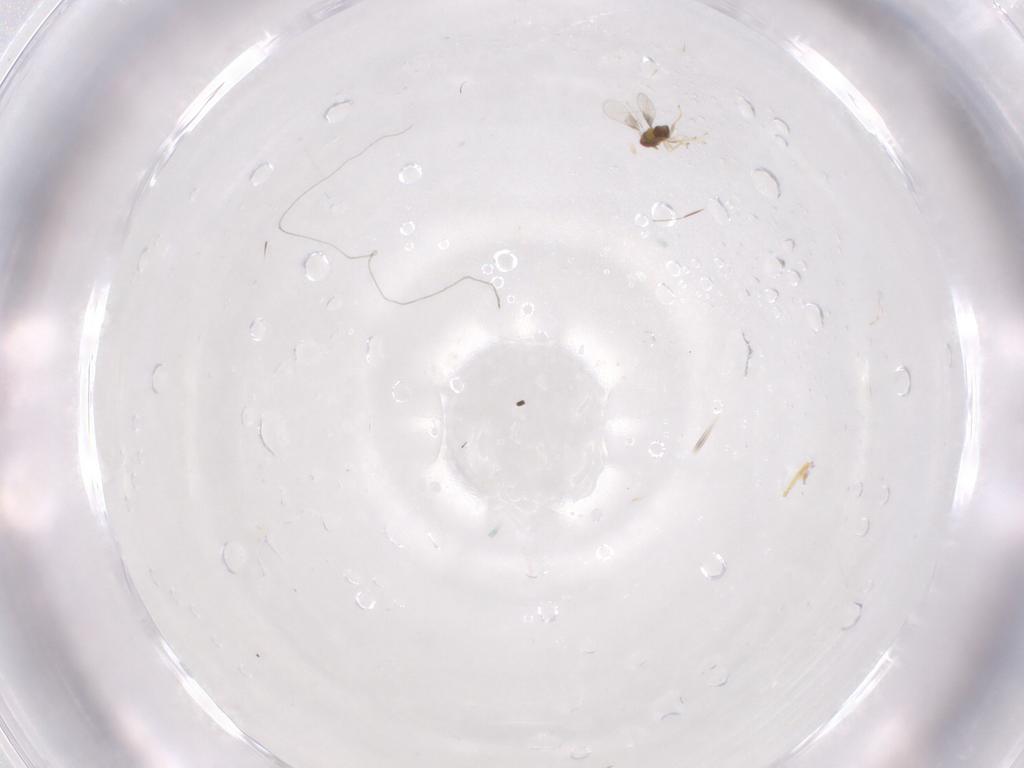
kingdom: Animalia
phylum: Arthropoda
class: Insecta
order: Hymenoptera
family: Trichogrammatidae
